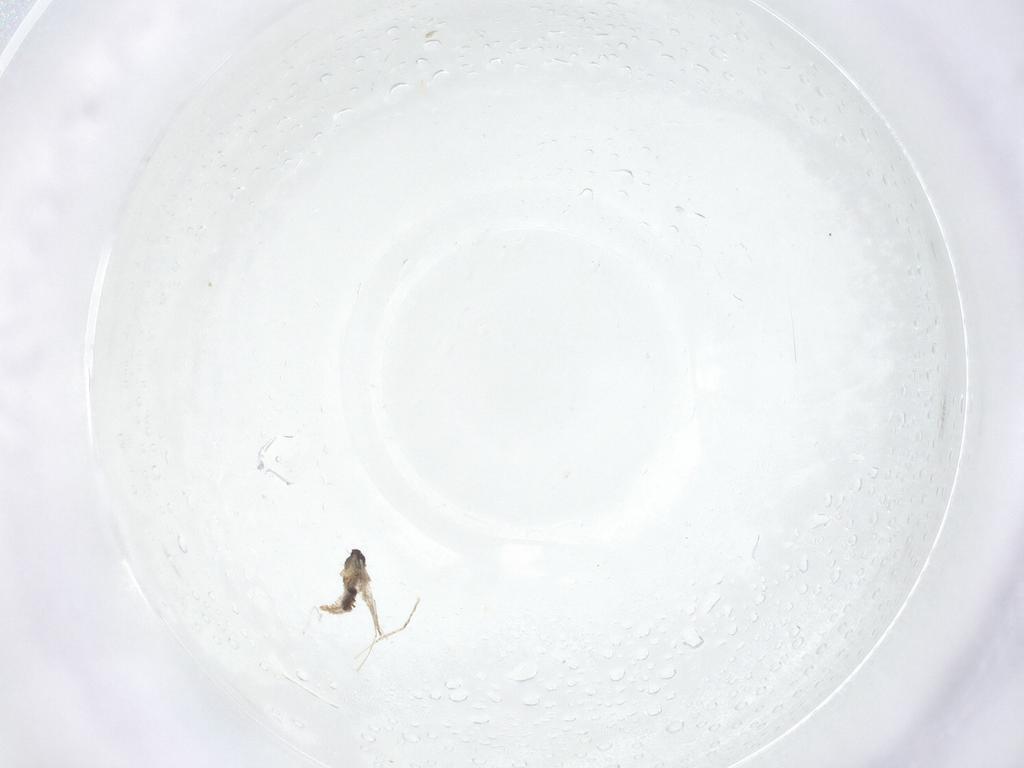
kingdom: Animalia
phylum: Arthropoda
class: Insecta
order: Diptera
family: Cecidomyiidae
